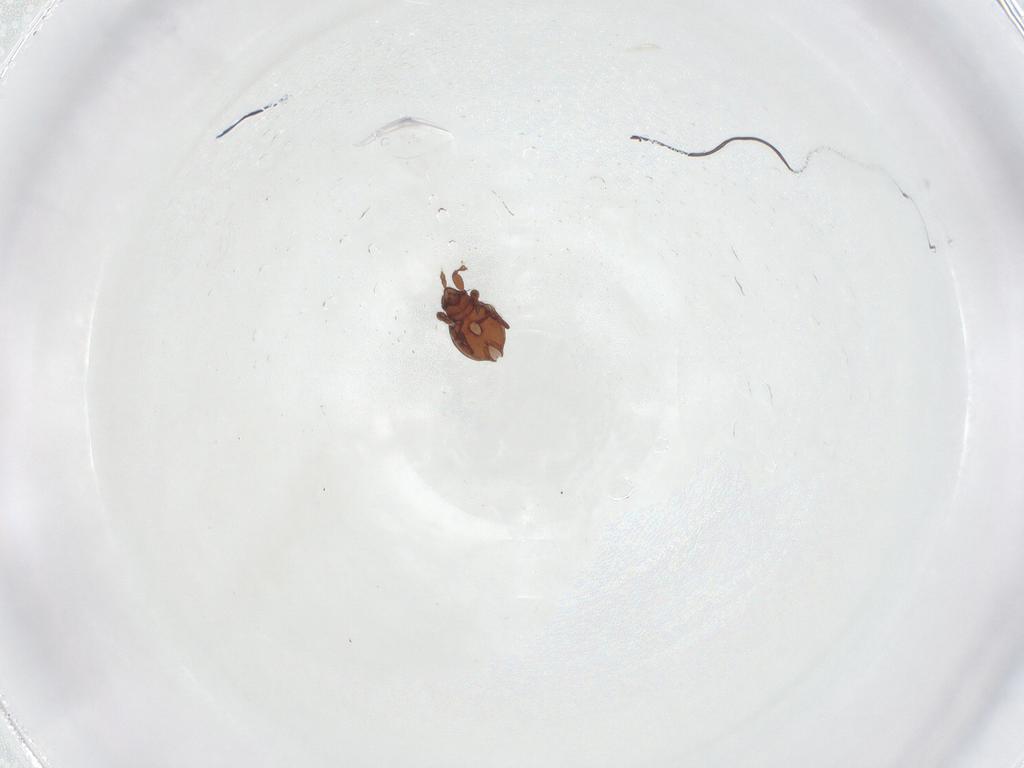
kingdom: Animalia
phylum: Arthropoda
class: Arachnida
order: Sarcoptiformes
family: Eremaeidae
